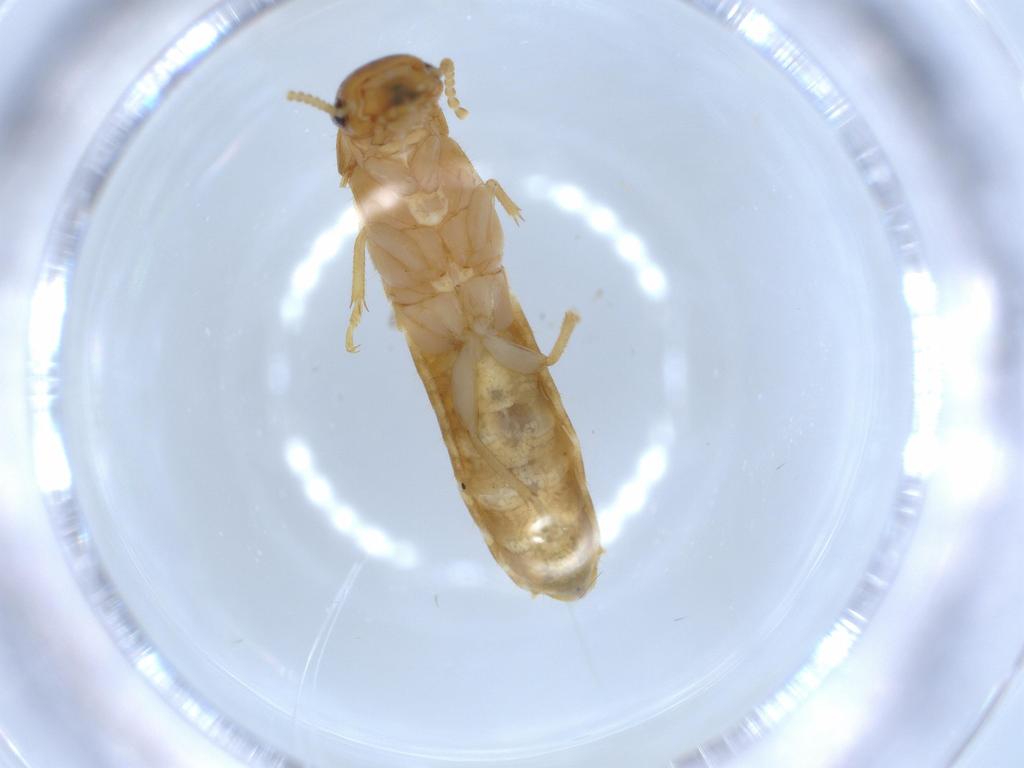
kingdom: Animalia
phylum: Arthropoda
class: Insecta
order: Blattodea
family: Kalotermitidae
